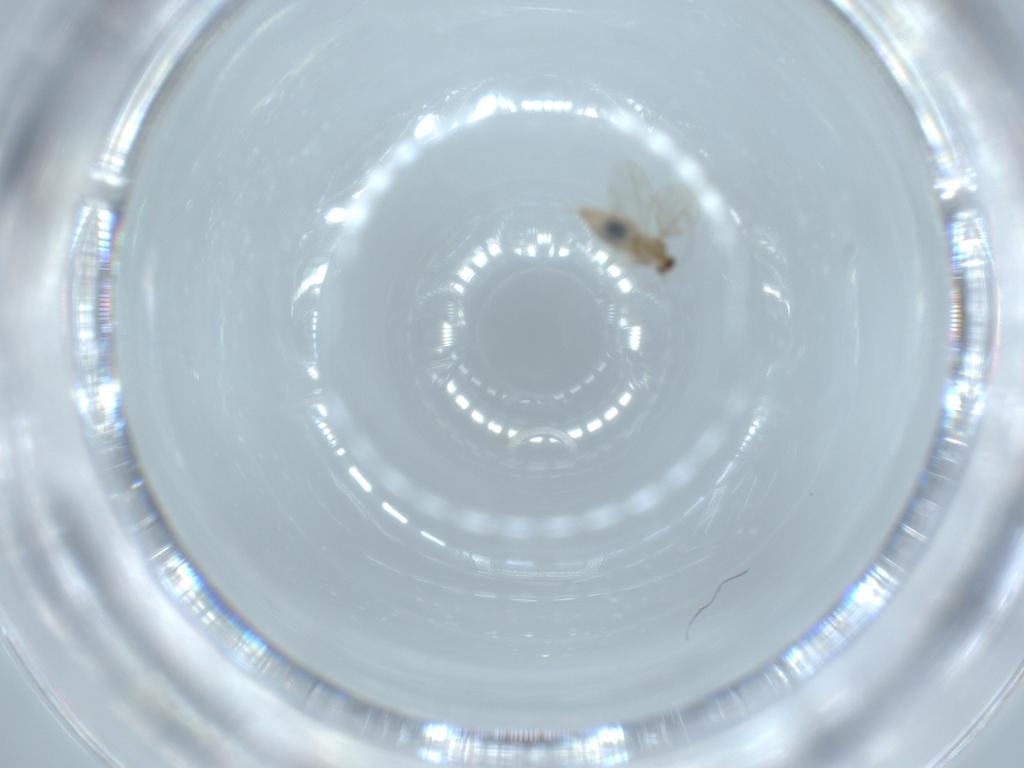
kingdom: Animalia
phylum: Arthropoda
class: Insecta
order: Diptera
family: Cecidomyiidae
